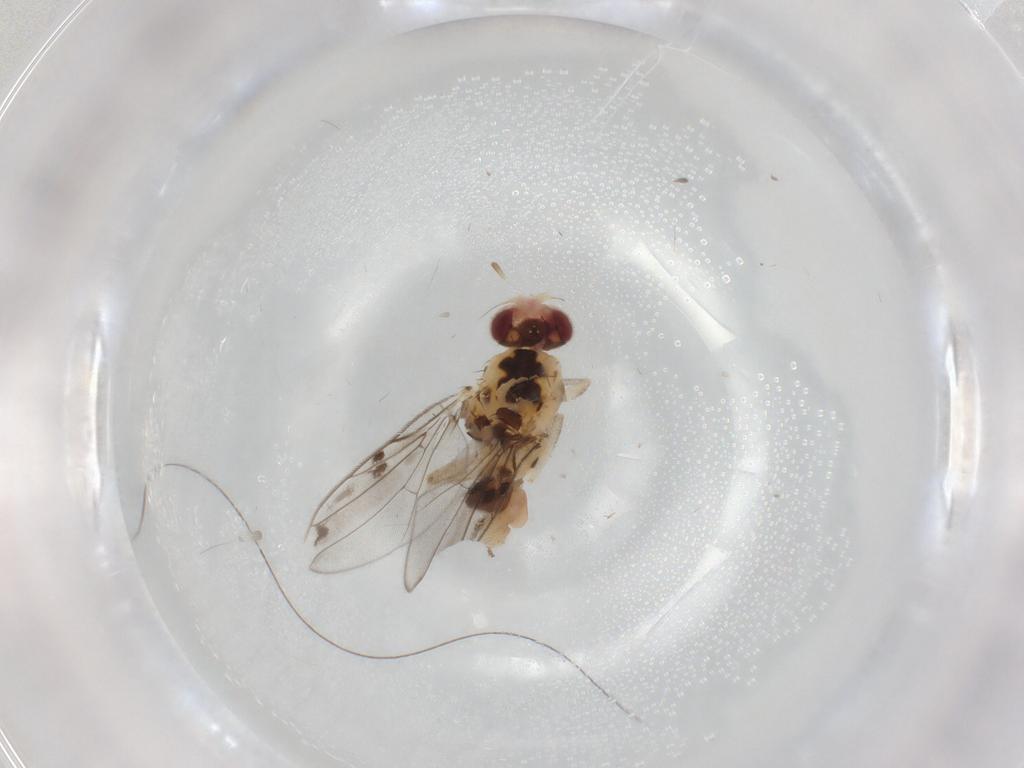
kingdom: Animalia
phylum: Arthropoda
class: Insecta
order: Diptera
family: Chloropidae
